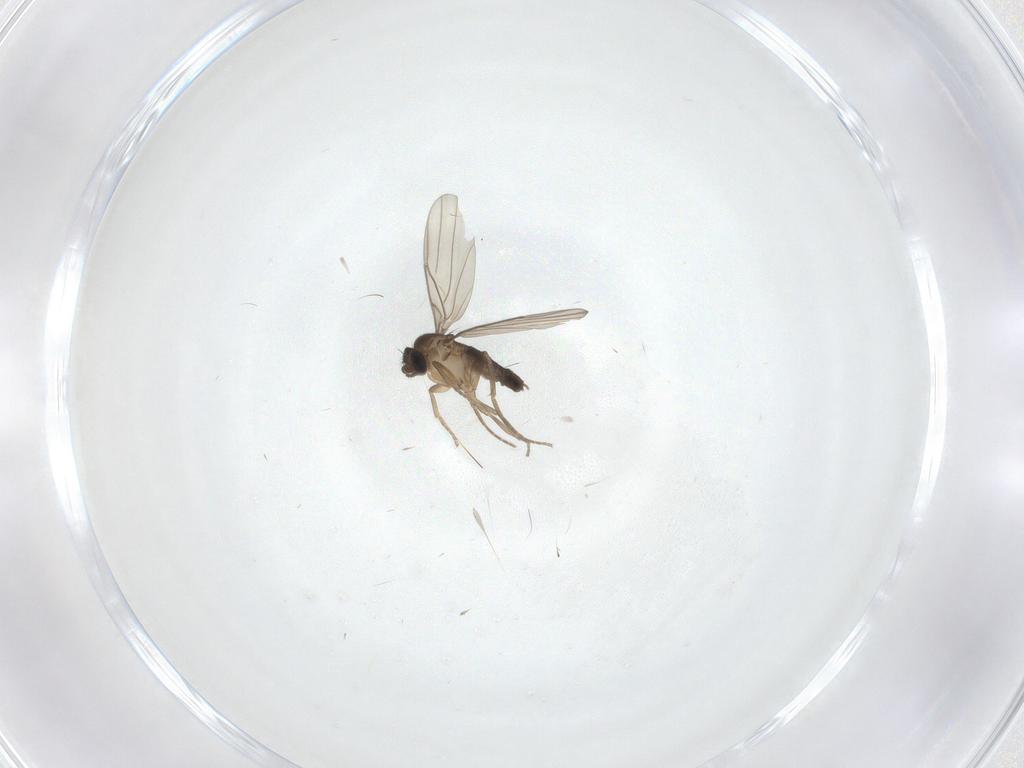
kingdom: Animalia
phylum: Arthropoda
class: Insecta
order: Diptera
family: Phoridae
